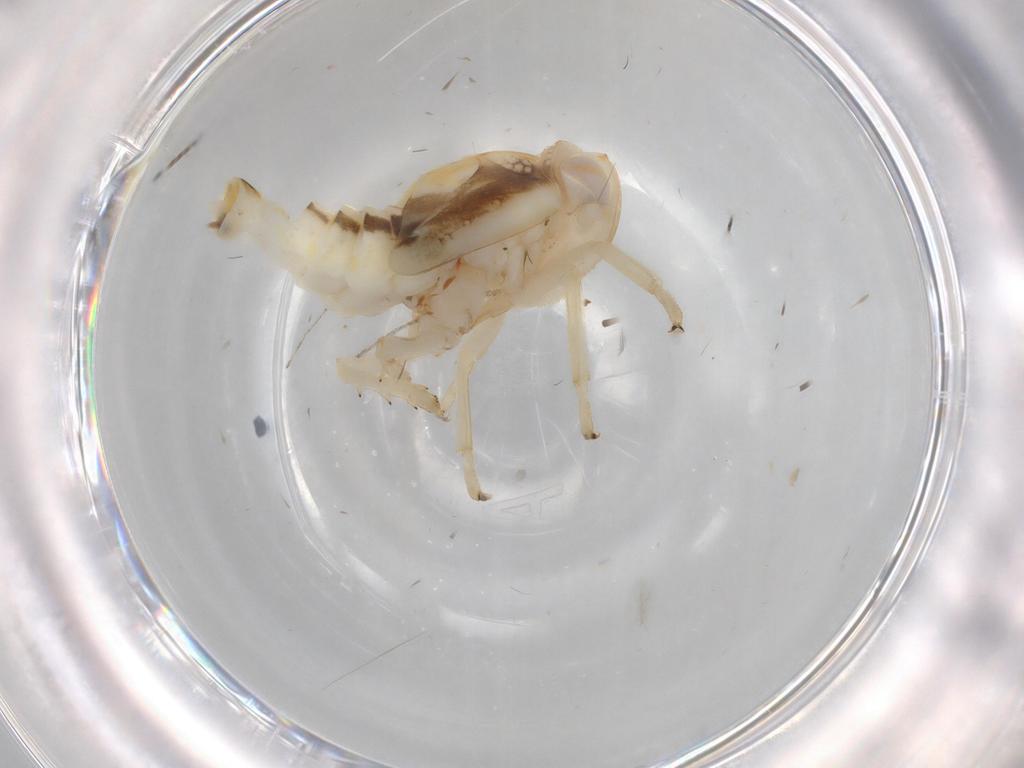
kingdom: Animalia
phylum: Arthropoda
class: Insecta
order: Hemiptera
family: Nogodinidae
